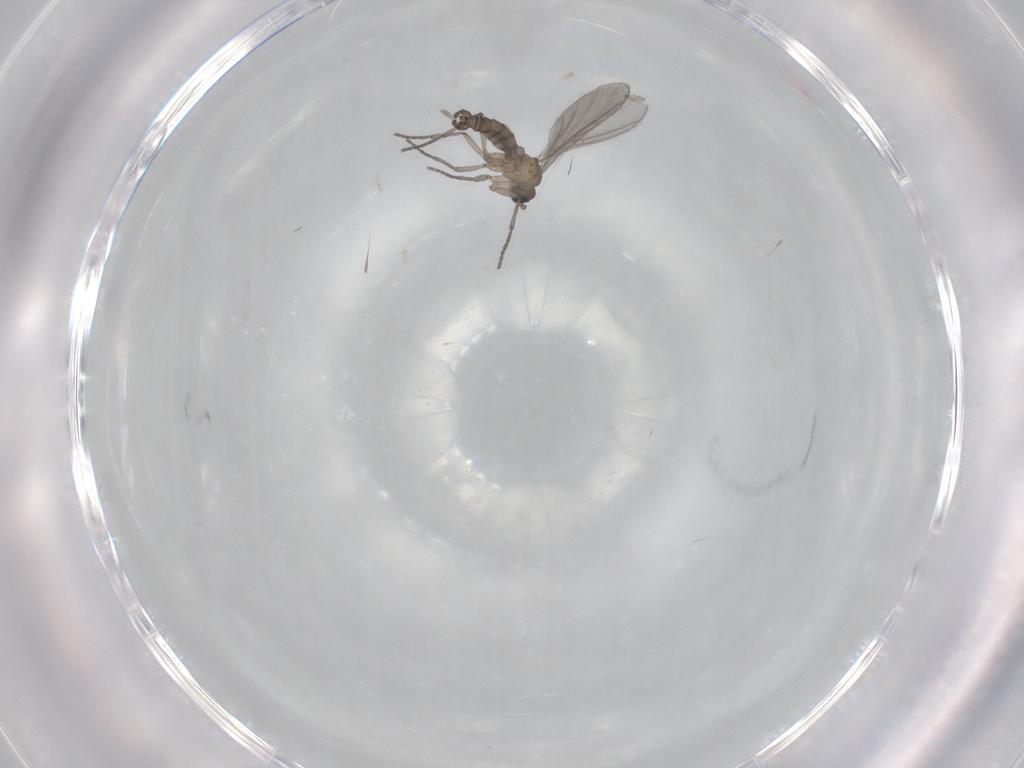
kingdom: Animalia
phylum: Arthropoda
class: Insecta
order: Diptera
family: Sciaridae
